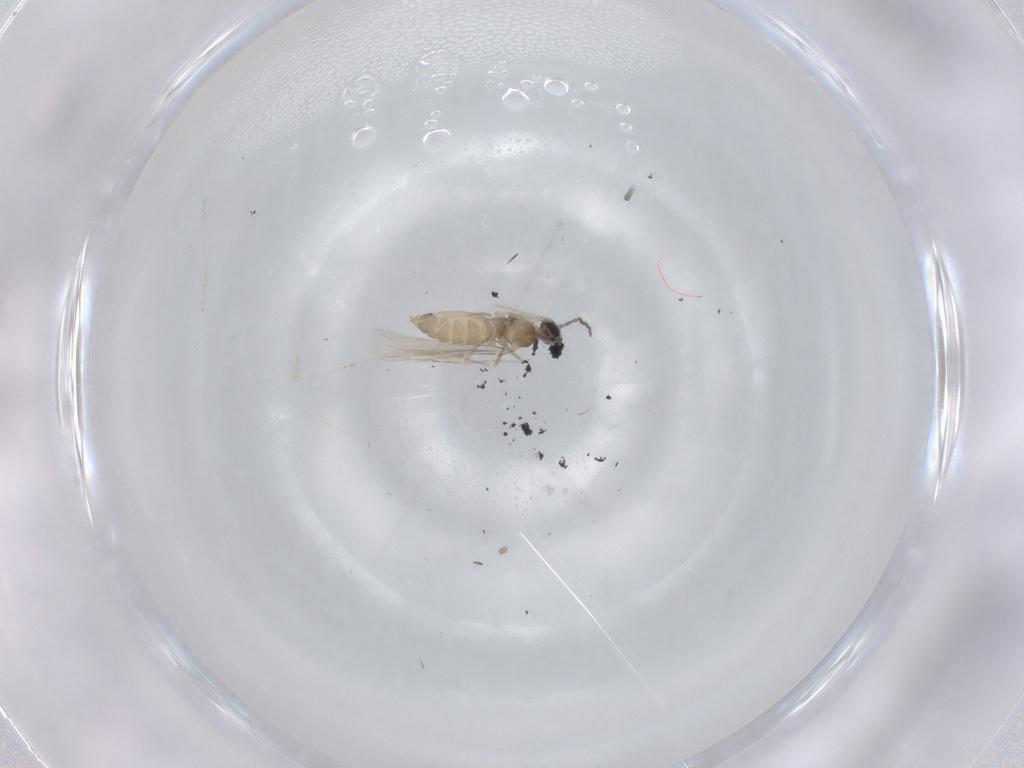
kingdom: Animalia
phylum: Arthropoda
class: Insecta
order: Diptera
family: Cecidomyiidae
